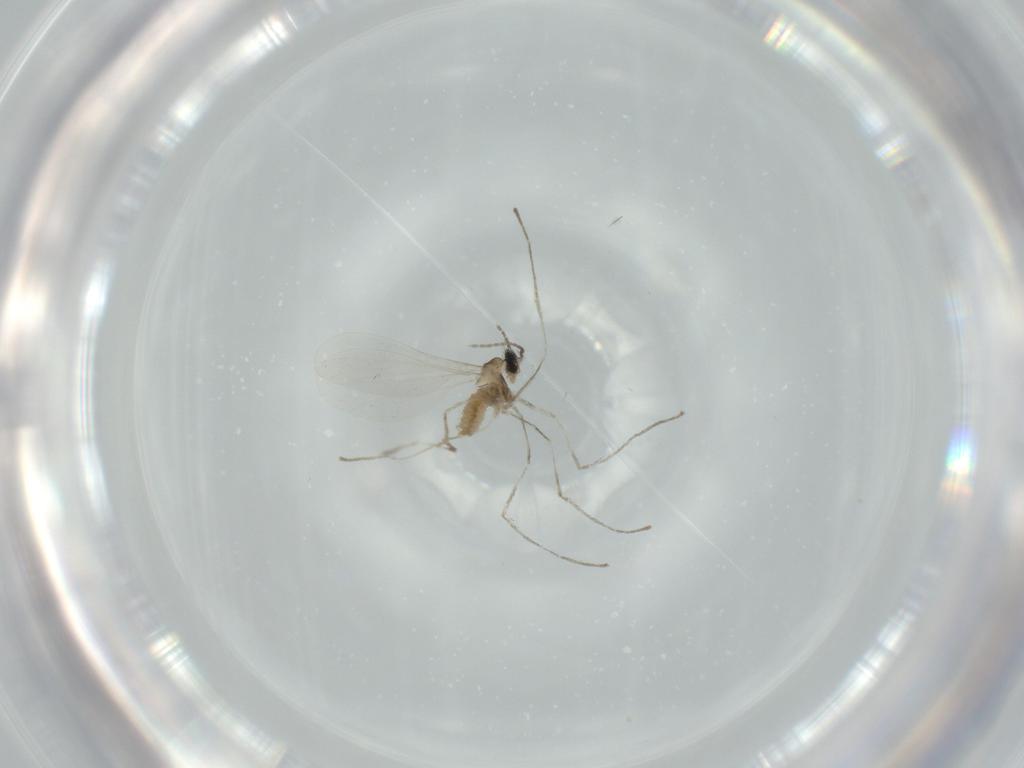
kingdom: Animalia
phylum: Arthropoda
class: Insecta
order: Diptera
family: Cecidomyiidae
